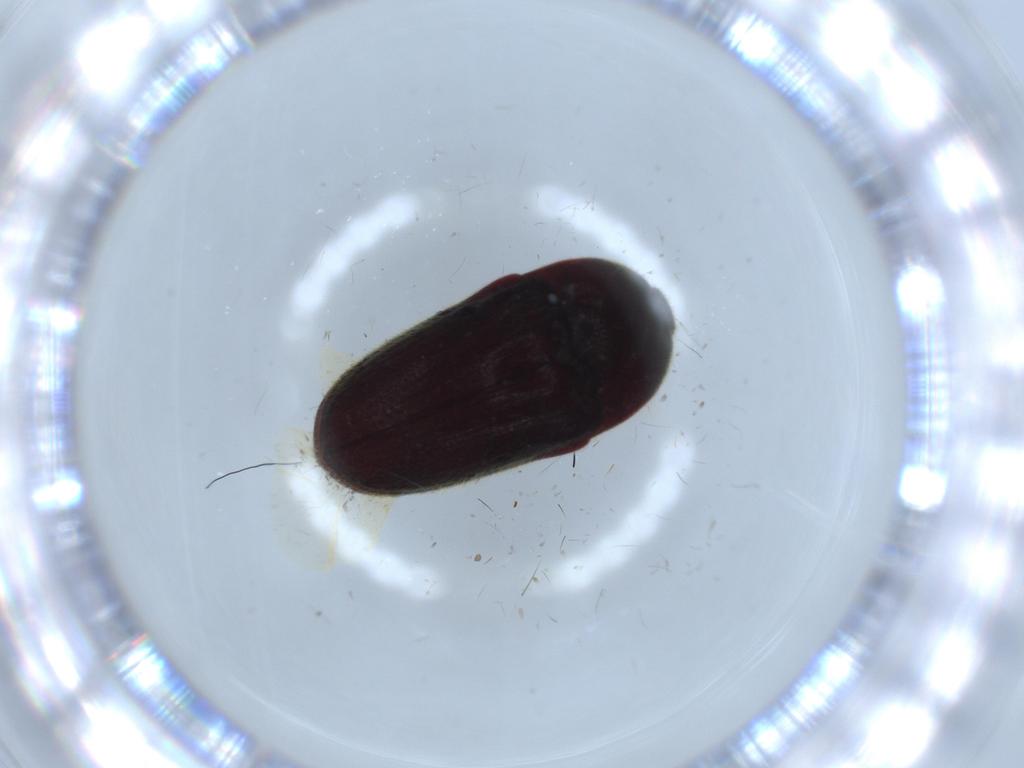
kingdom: Animalia
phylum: Arthropoda
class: Insecta
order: Coleoptera
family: Throscidae
